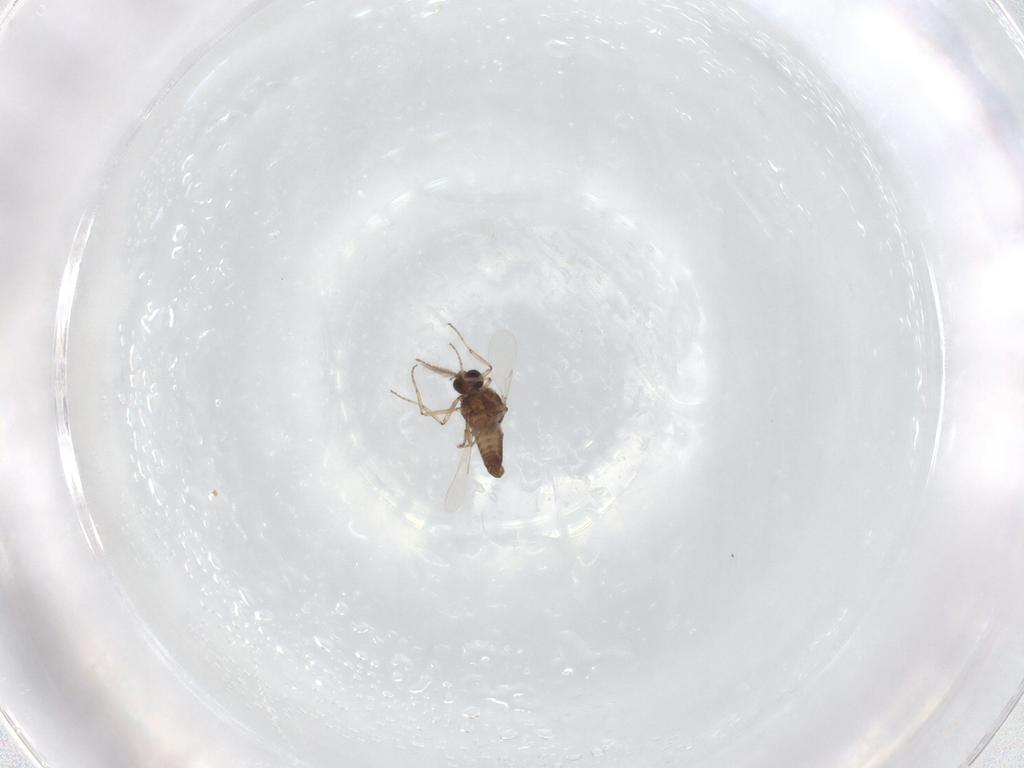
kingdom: Animalia
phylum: Arthropoda
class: Insecta
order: Diptera
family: Ceratopogonidae
